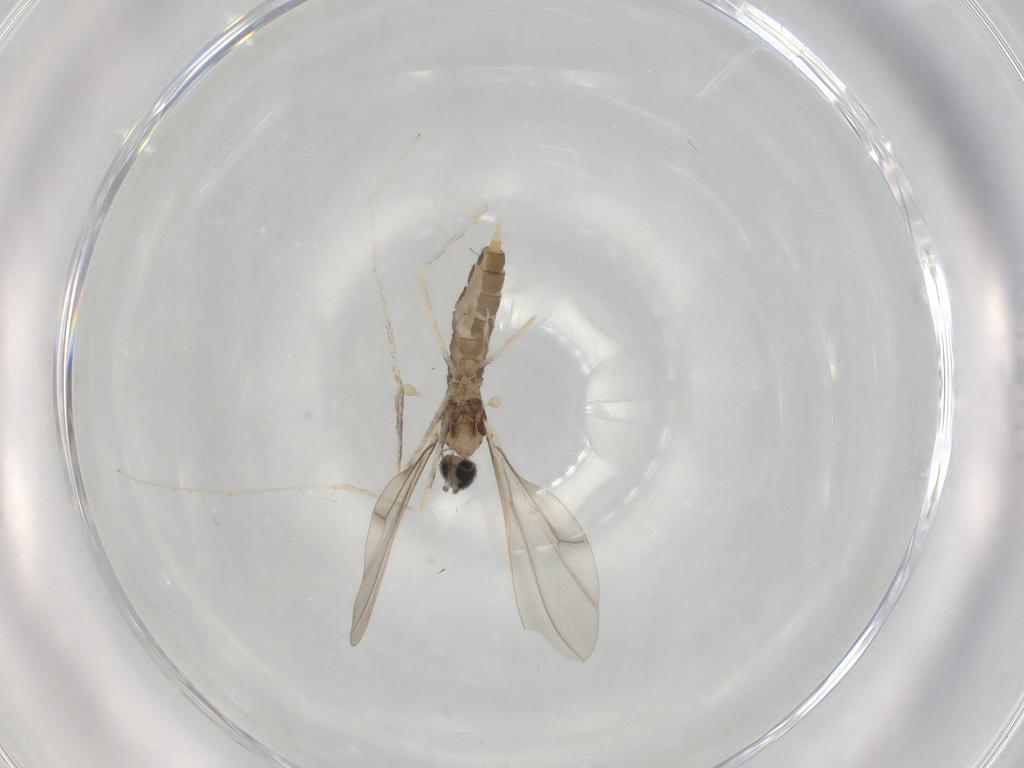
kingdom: Animalia
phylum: Arthropoda
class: Insecta
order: Diptera
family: Cecidomyiidae
